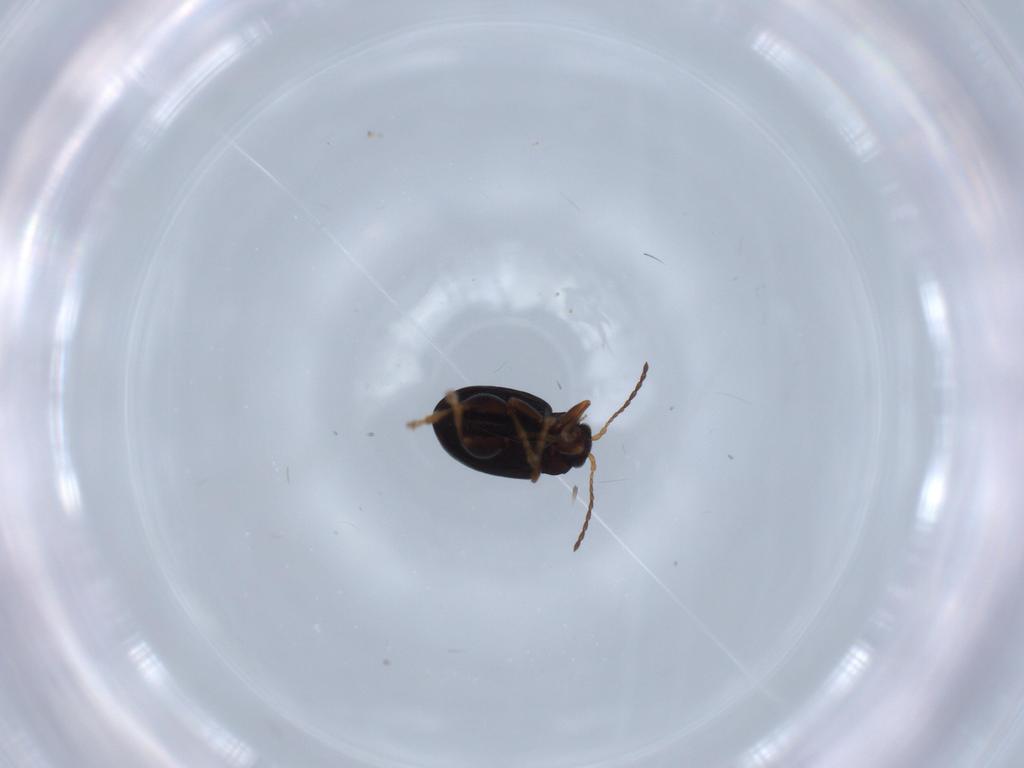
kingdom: Animalia
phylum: Arthropoda
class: Insecta
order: Coleoptera
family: Chrysomelidae
